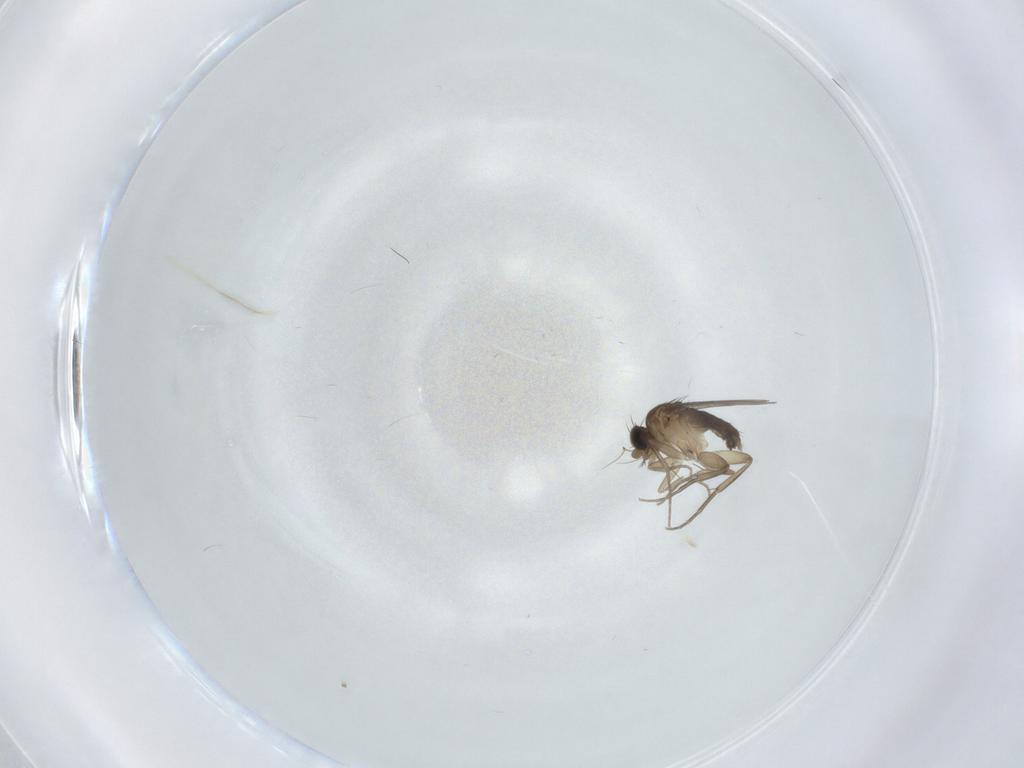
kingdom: Animalia
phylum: Arthropoda
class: Insecta
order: Diptera
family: Phoridae
